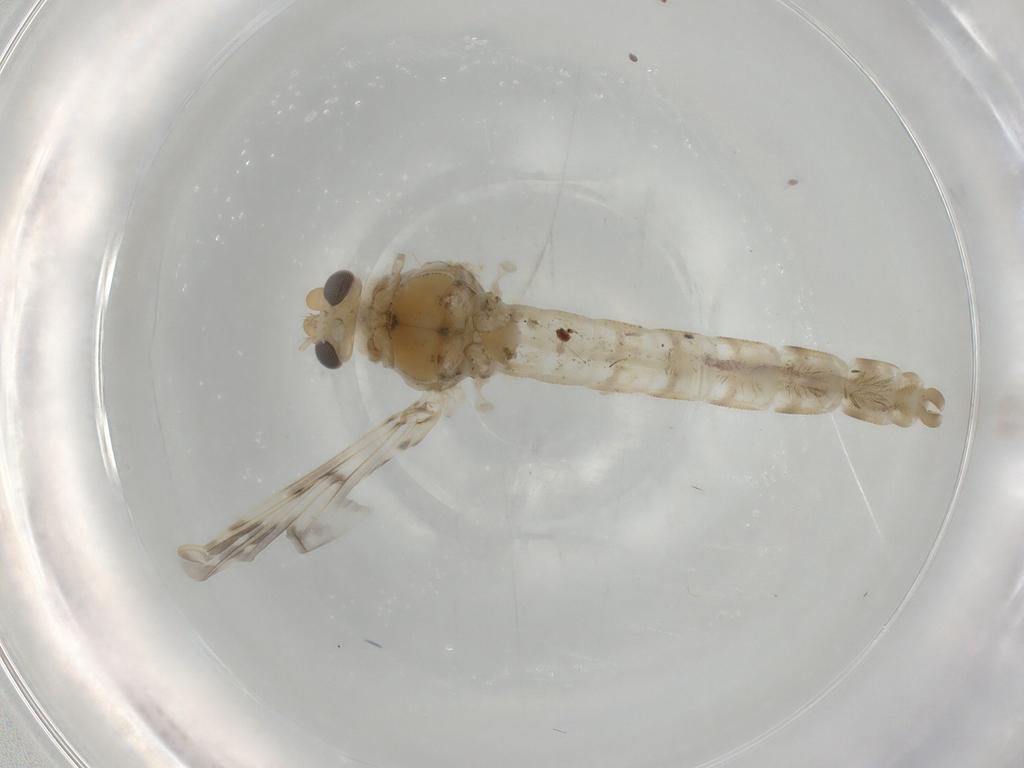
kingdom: Animalia
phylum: Arthropoda
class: Insecta
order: Diptera
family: Chironomidae
